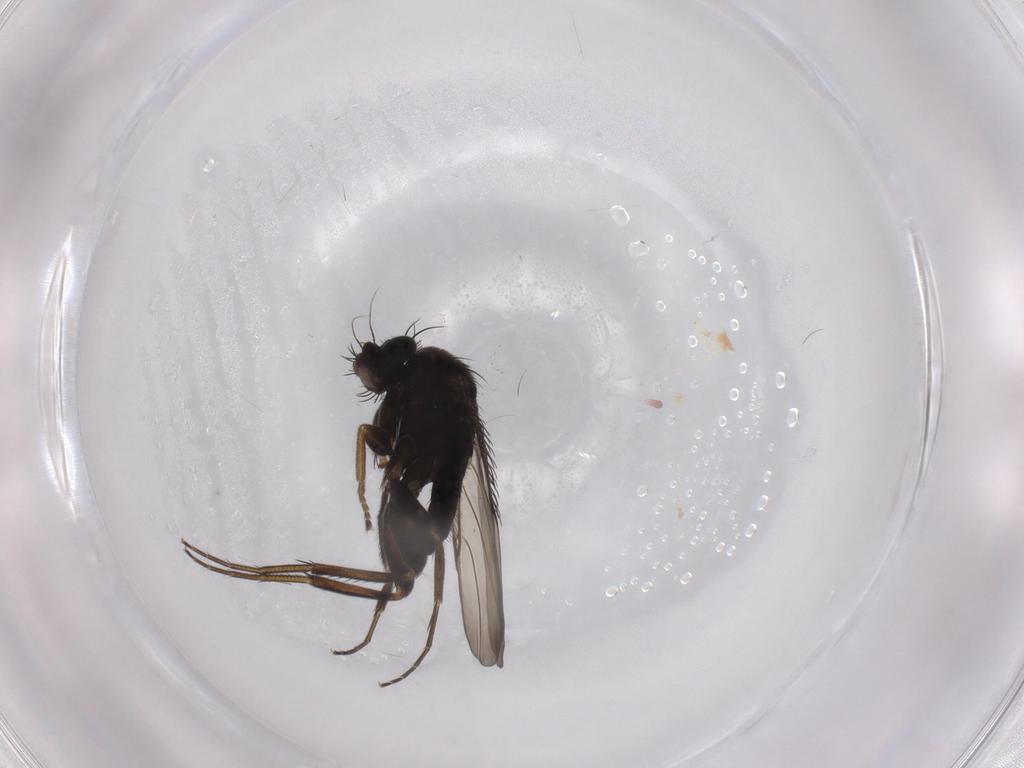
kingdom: Animalia
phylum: Arthropoda
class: Insecta
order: Diptera
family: Phoridae
